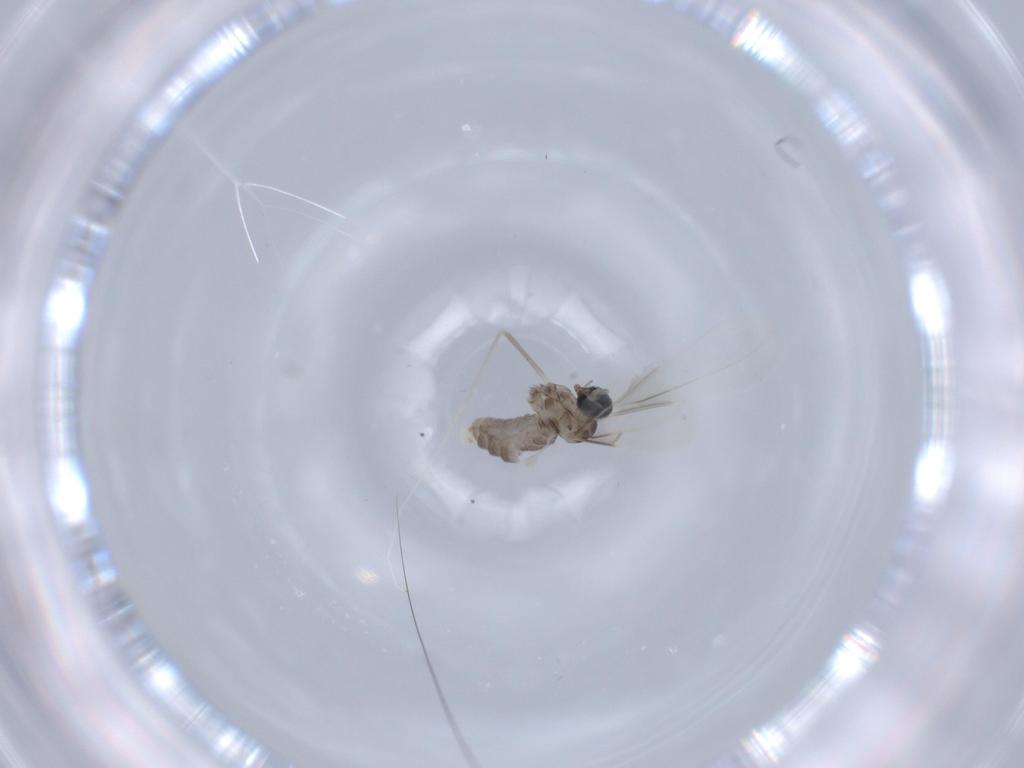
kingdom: Animalia
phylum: Arthropoda
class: Insecta
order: Diptera
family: Cecidomyiidae
